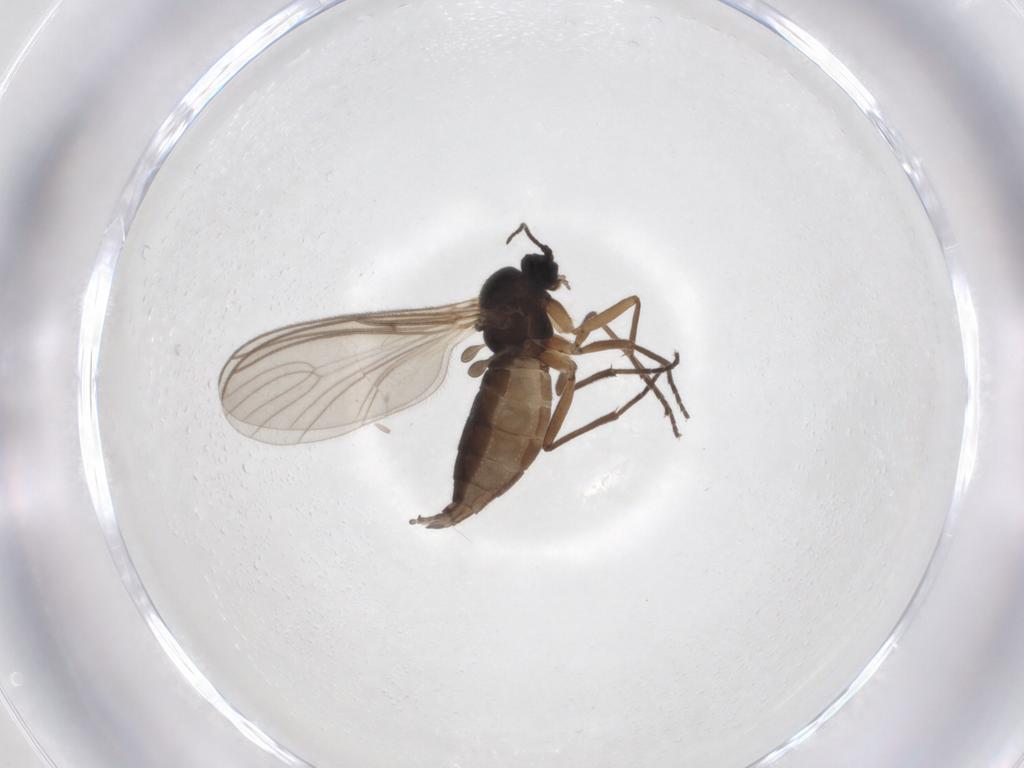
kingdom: Animalia
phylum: Arthropoda
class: Insecta
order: Diptera
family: Sciaridae
